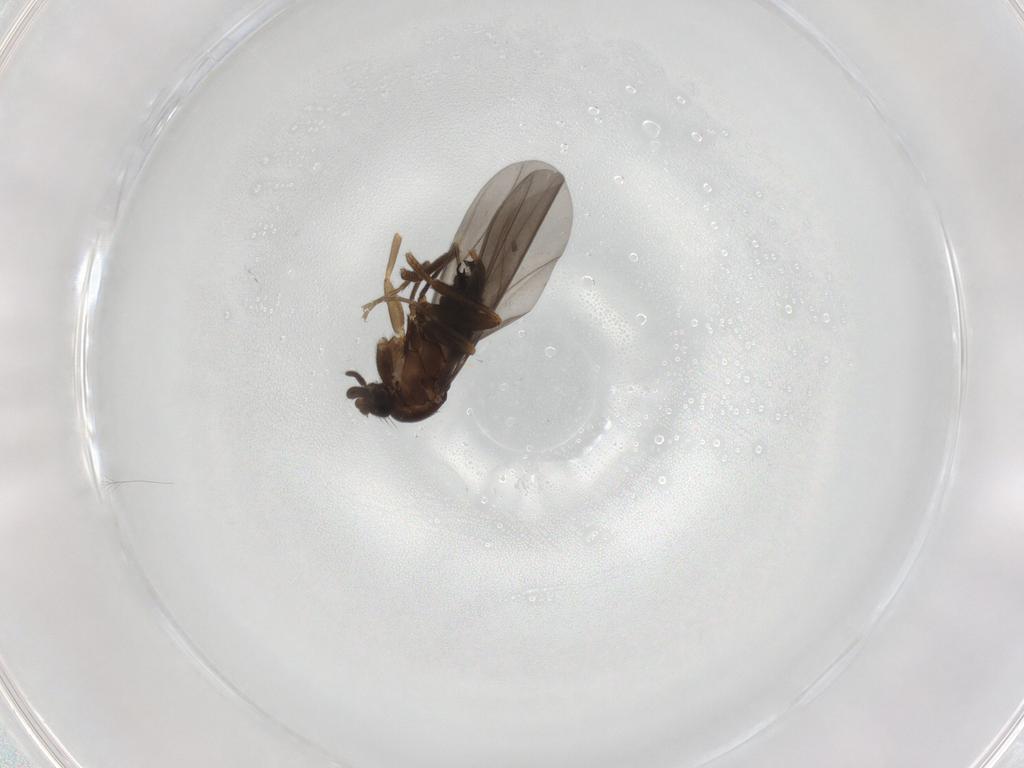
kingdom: Animalia
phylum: Arthropoda
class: Insecta
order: Diptera
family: Phoridae
